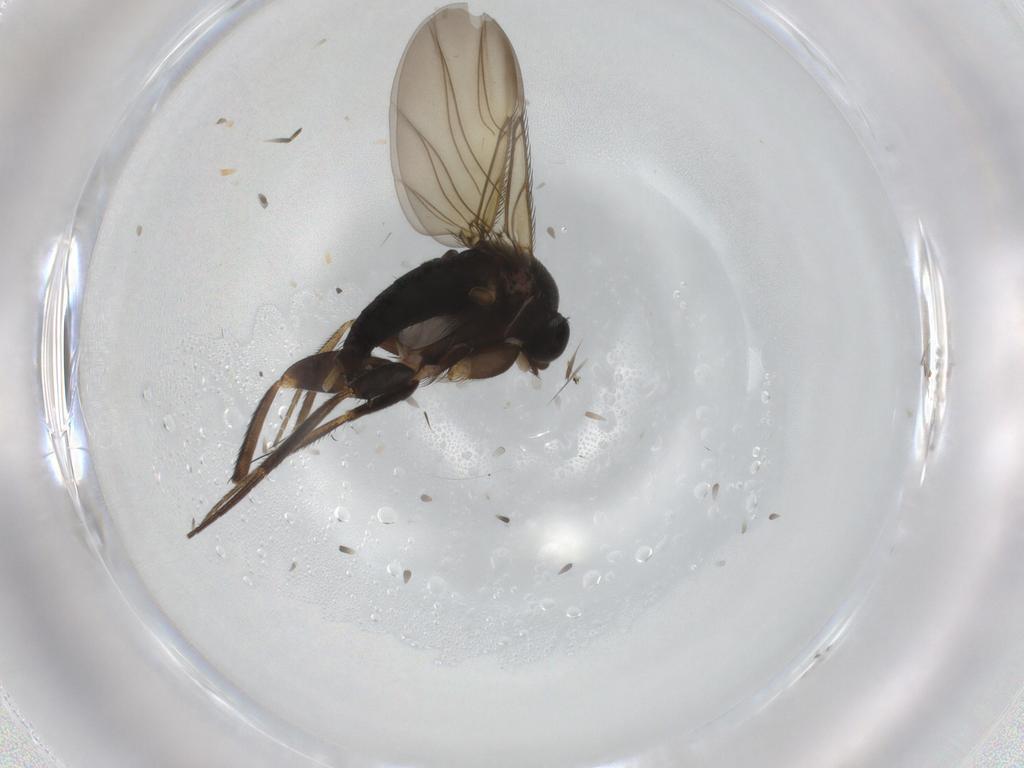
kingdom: Animalia
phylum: Arthropoda
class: Insecta
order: Diptera
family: Phoridae
